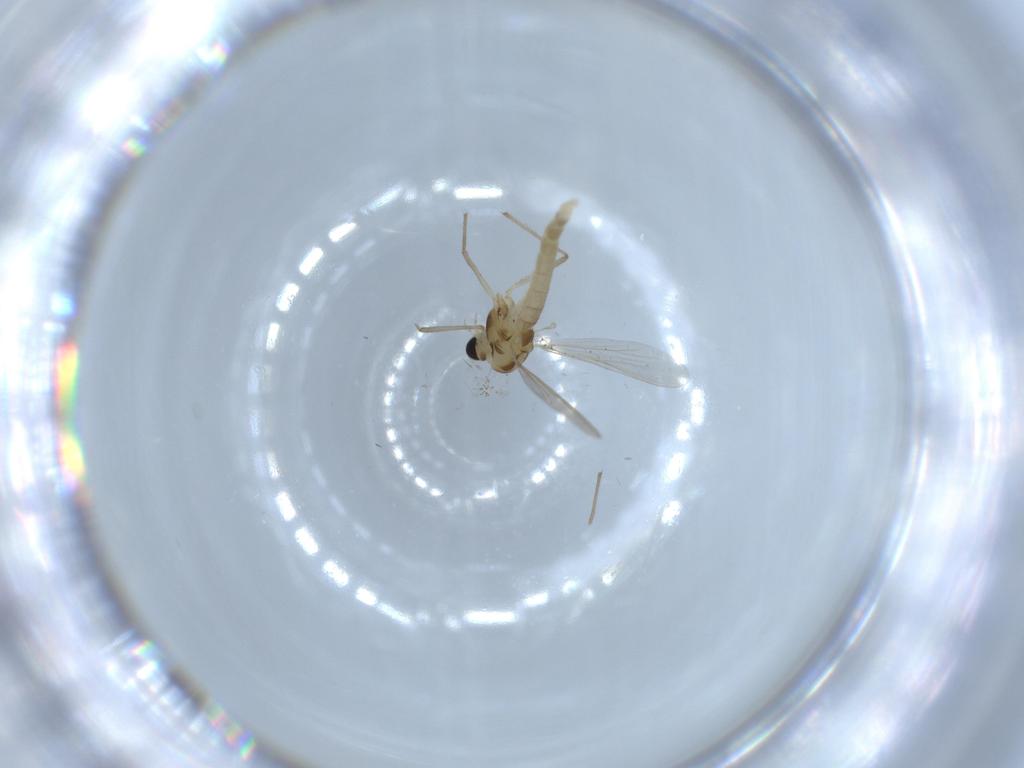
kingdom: Animalia
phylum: Arthropoda
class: Insecta
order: Diptera
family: Chironomidae
